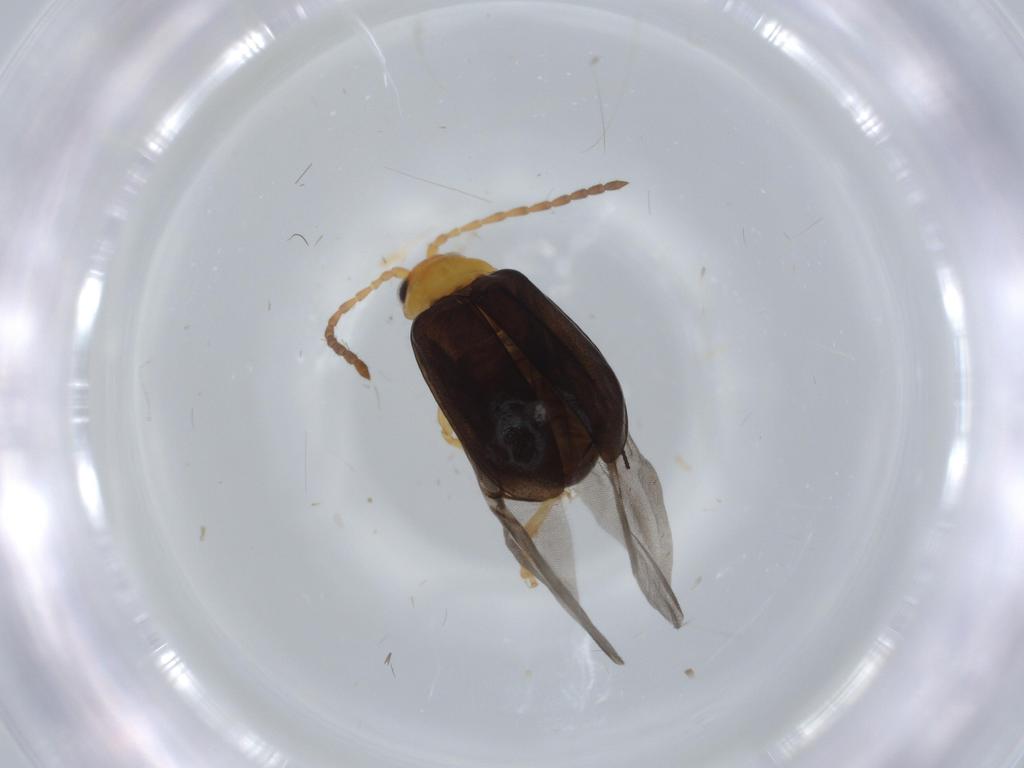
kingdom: Animalia
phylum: Arthropoda
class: Insecta
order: Coleoptera
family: Chrysomelidae
